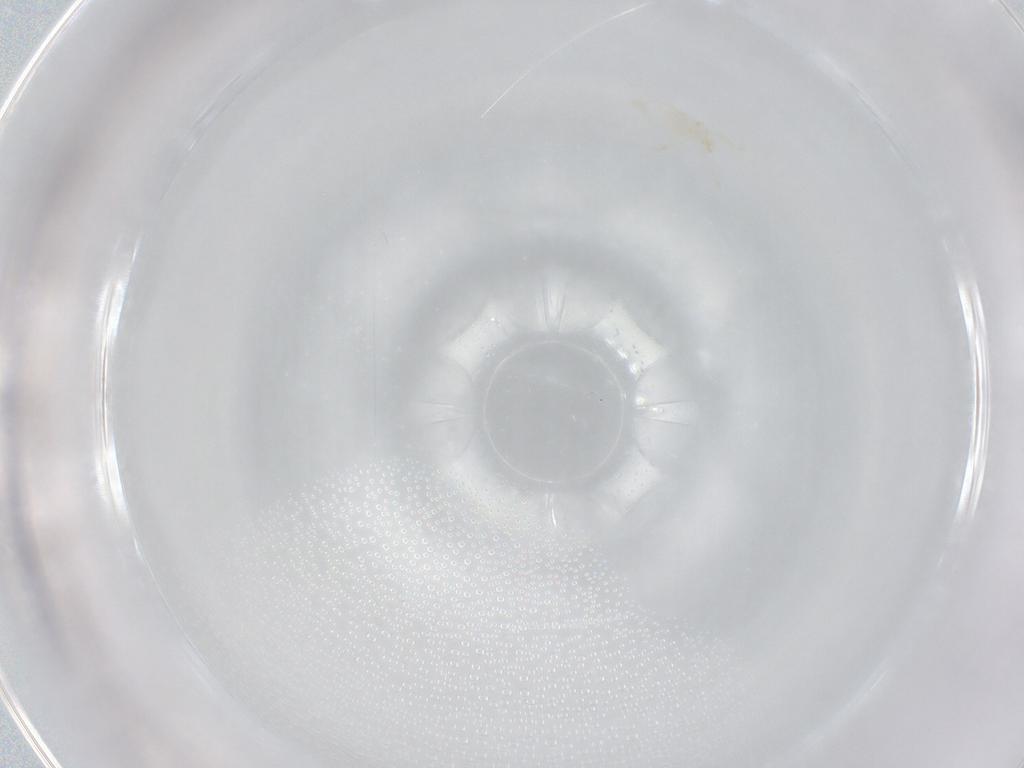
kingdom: Animalia
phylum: Arthropoda
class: Arachnida
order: Trombidiformes
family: Erythraeidae
